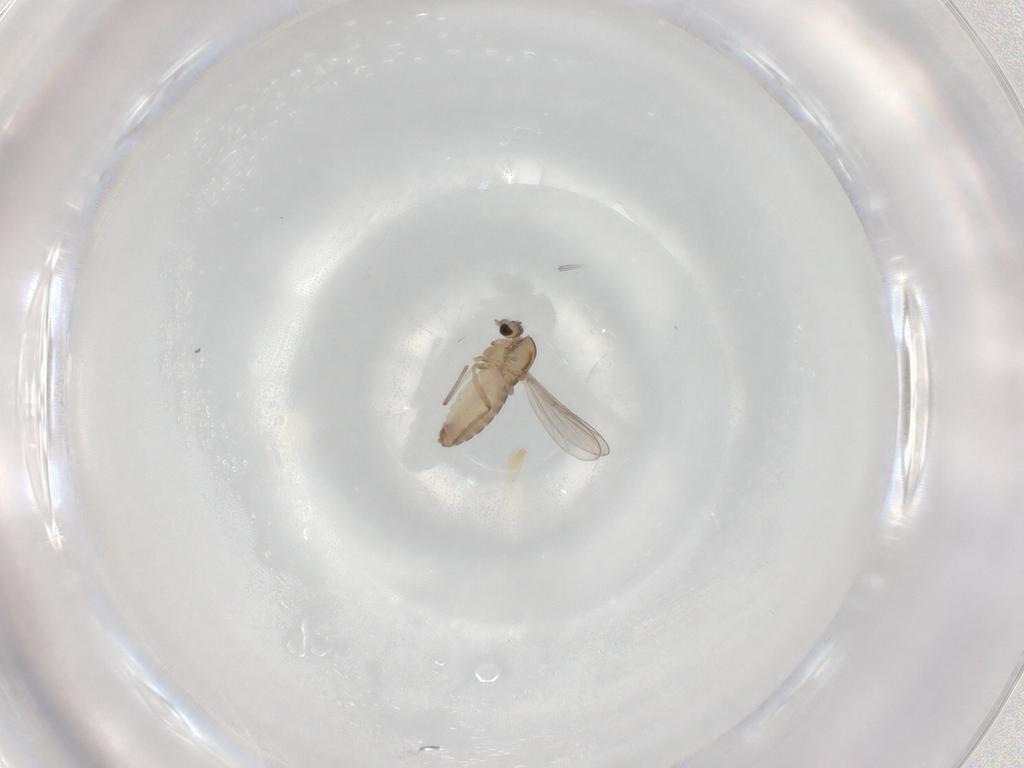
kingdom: Animalia
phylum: Arthropoda
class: Insecta
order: Diptera
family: Chironomidae
